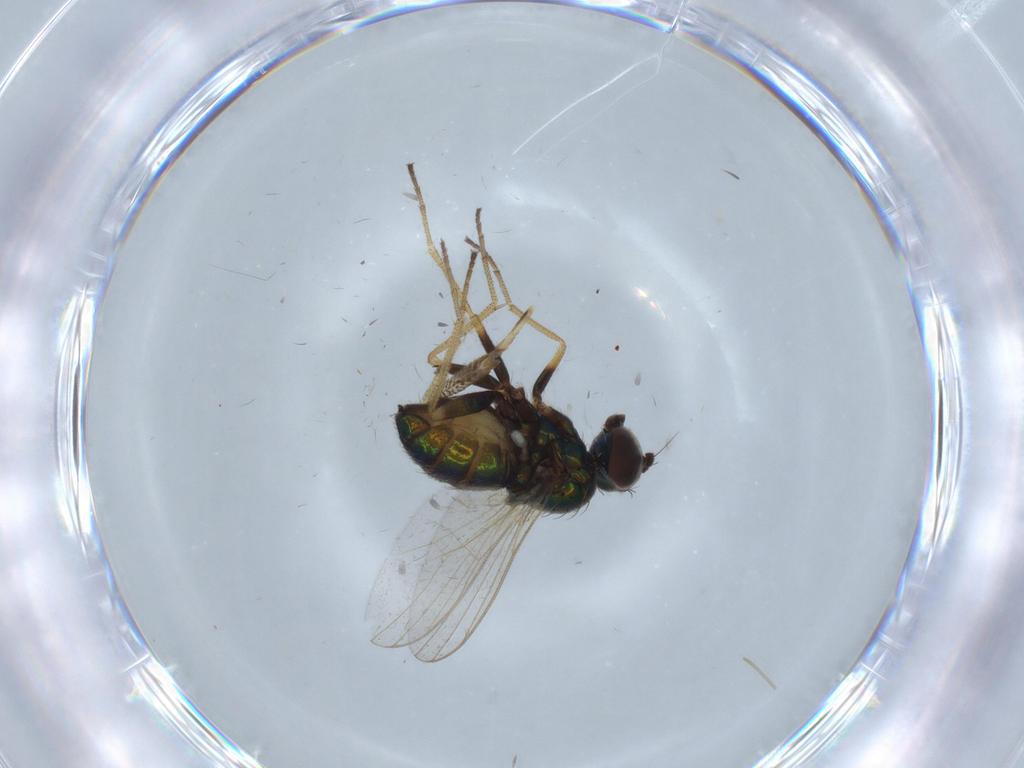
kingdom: Animalia
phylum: Arthropoda
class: Insecta
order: Diptera
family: Dolichopodidae
